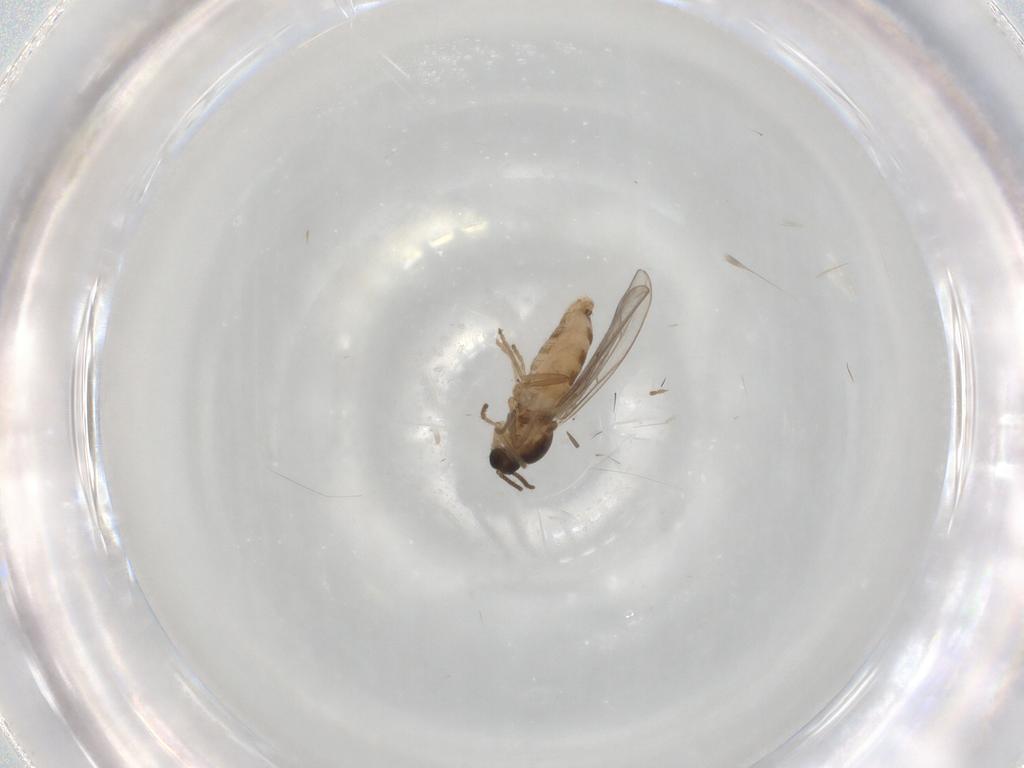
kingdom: Animalia
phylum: Arthropoda
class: Insecta
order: Diptera
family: Cecidomyiidae
